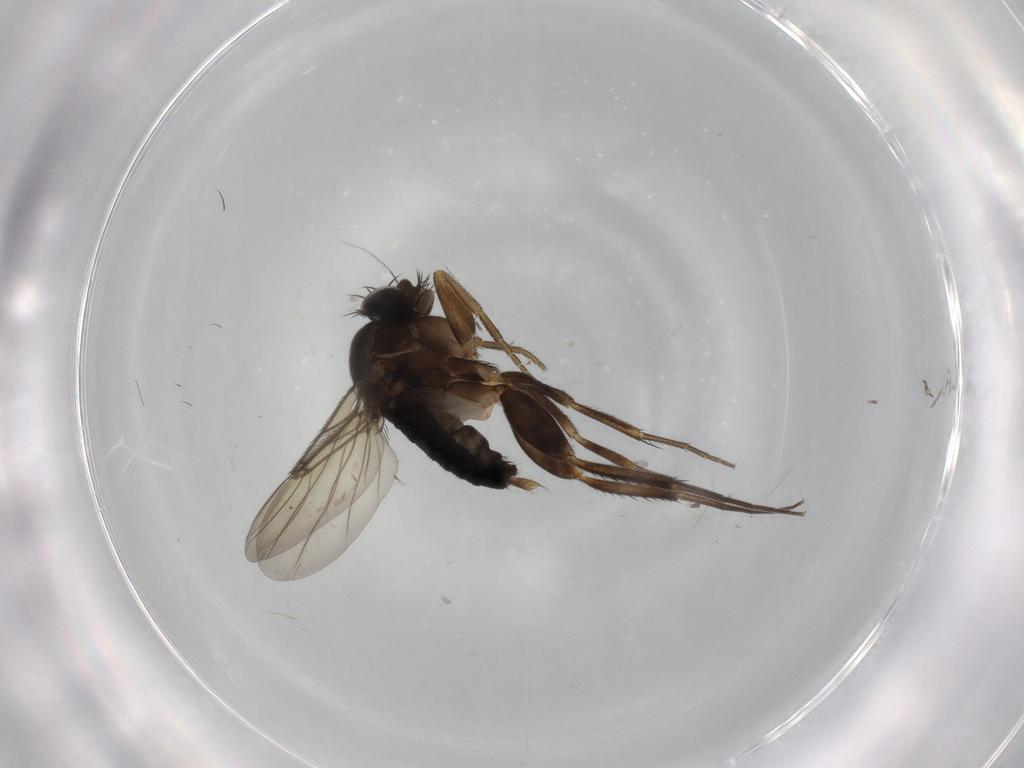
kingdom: Animalia
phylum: Arthropoda
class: Insecta
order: Diptera
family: Phoridae
